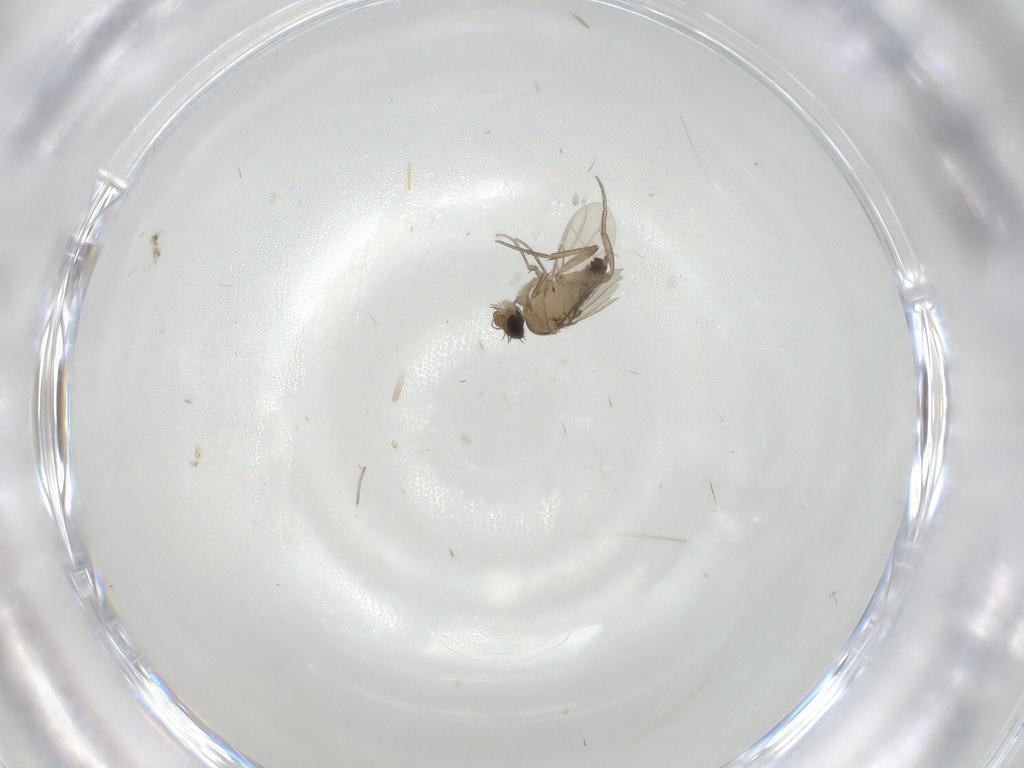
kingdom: Animalia
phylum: Arthropoda
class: Insecta
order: Diptera
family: Phoridae
